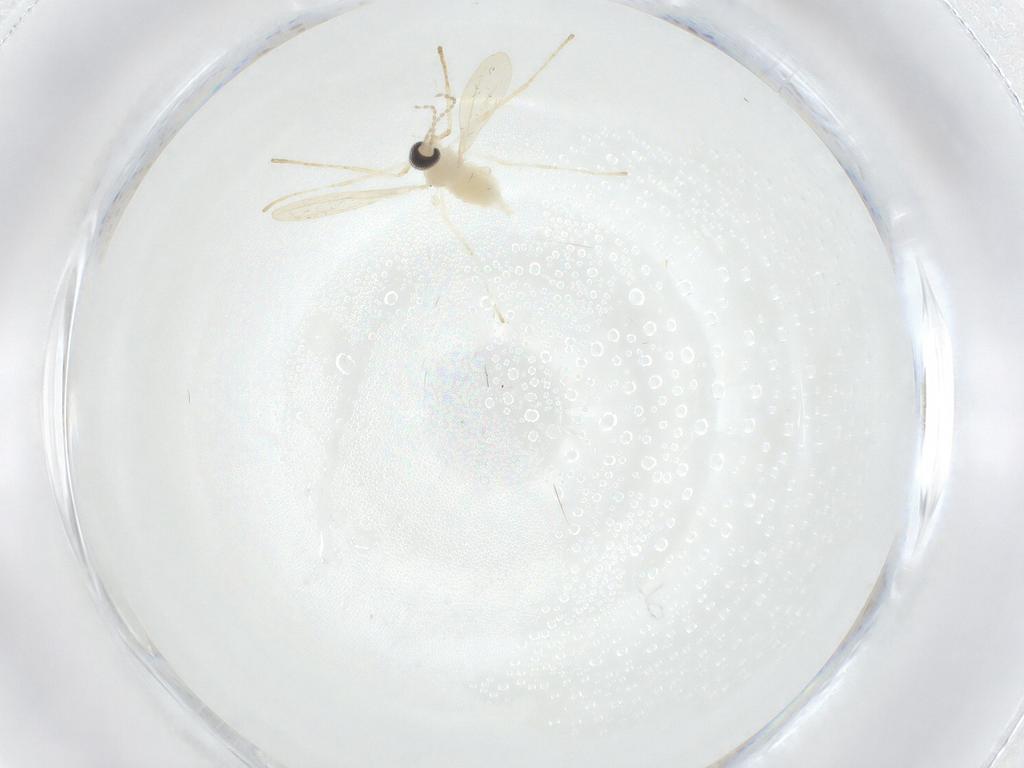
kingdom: Animalia
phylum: Arthropoda
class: Insecta
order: Diptera
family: Cecidomyiidae
